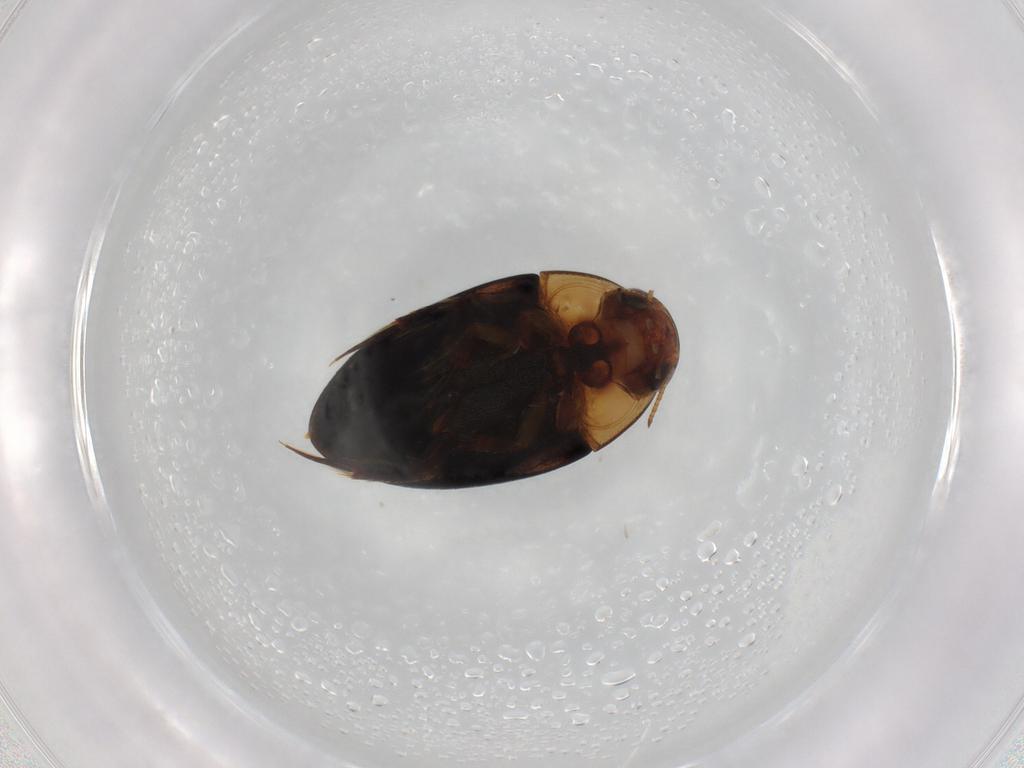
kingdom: Animalia
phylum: Arthropoda
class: Insecta
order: Coleoptera
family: Noteridae
